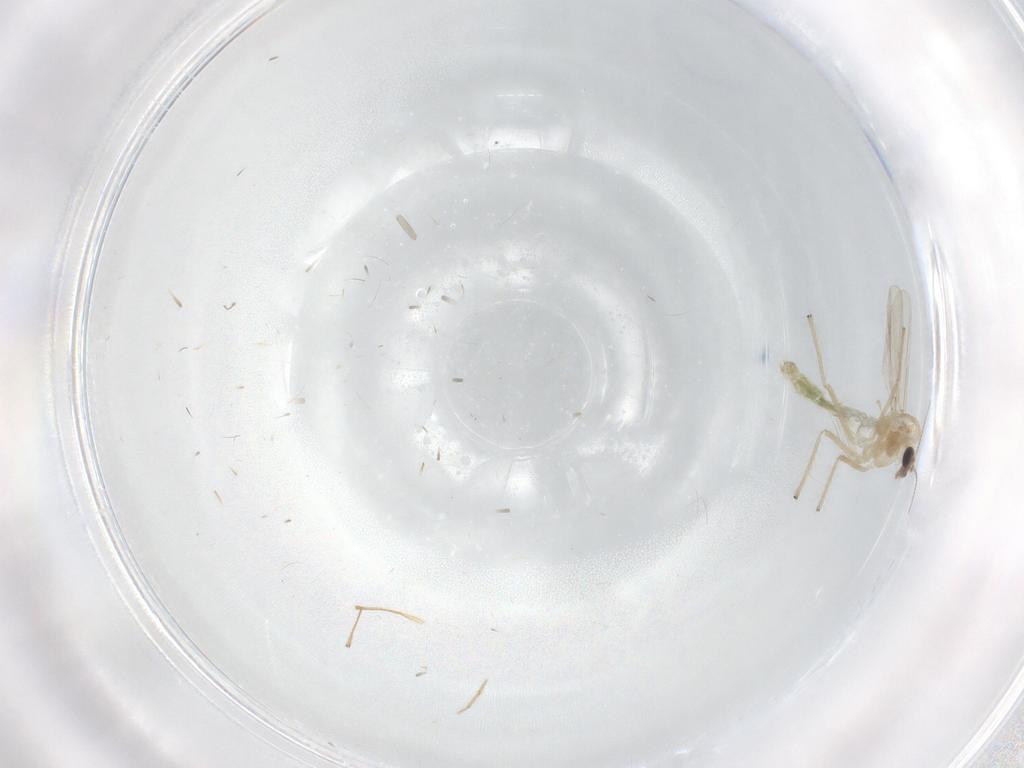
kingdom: Animalia
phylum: Arthropoda
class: Insecta
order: Diptera
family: Chironomidae
